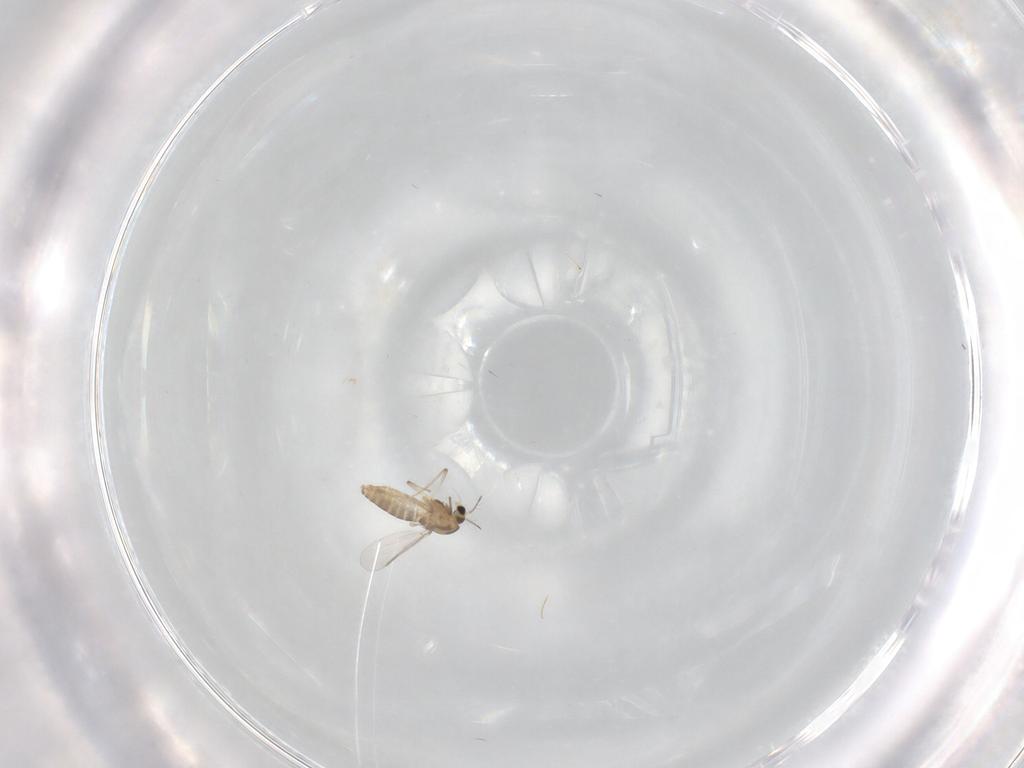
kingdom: Animalia
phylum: Arthropoda
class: Insecta
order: Diptera
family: Chironomidae
